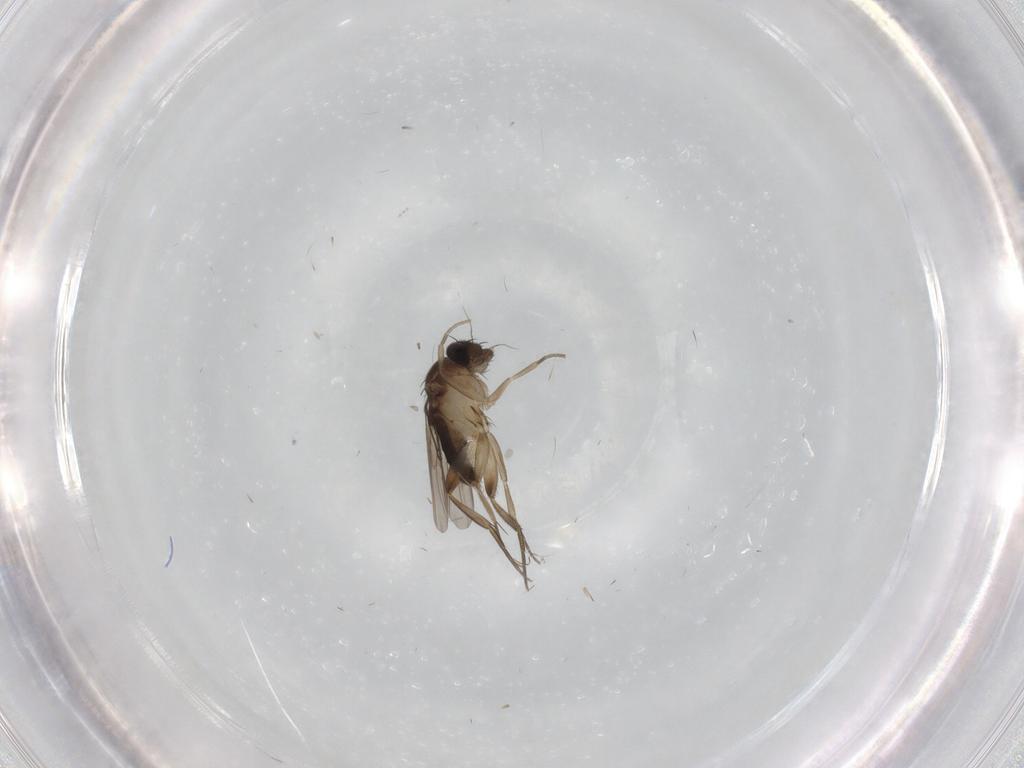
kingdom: Animalia
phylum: Arthropoda
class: Insecta
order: Diptera
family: Phoridae
